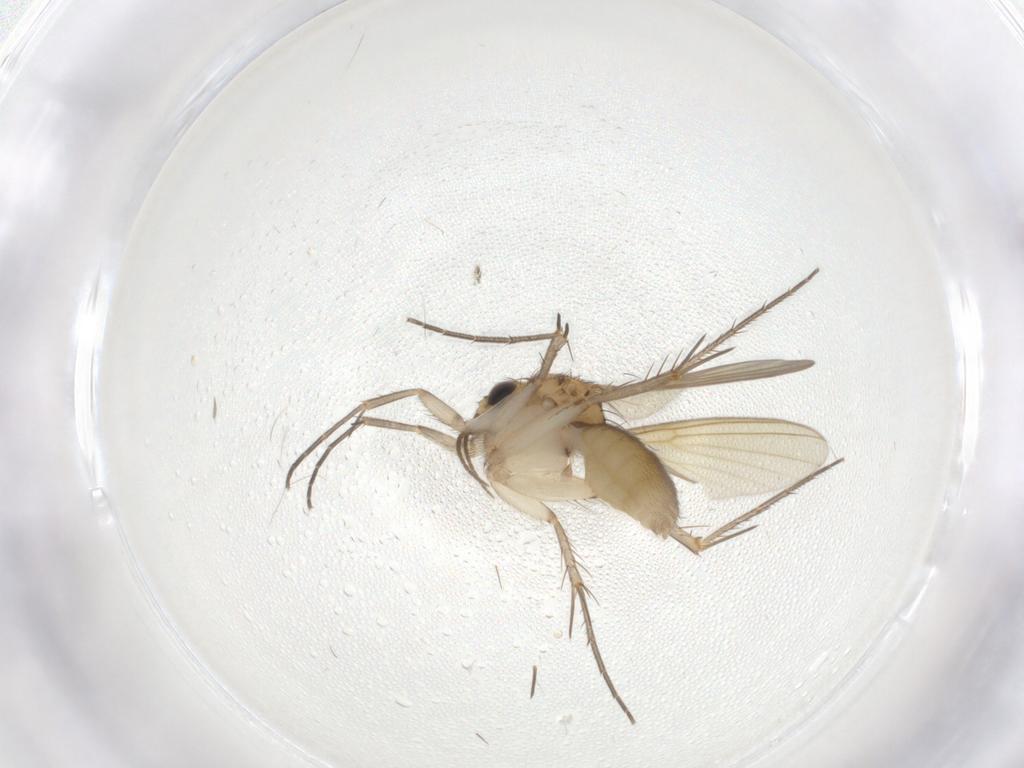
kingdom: Animalia
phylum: Arthropoda
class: Insecta
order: Diptera
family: Mycetophilidae
